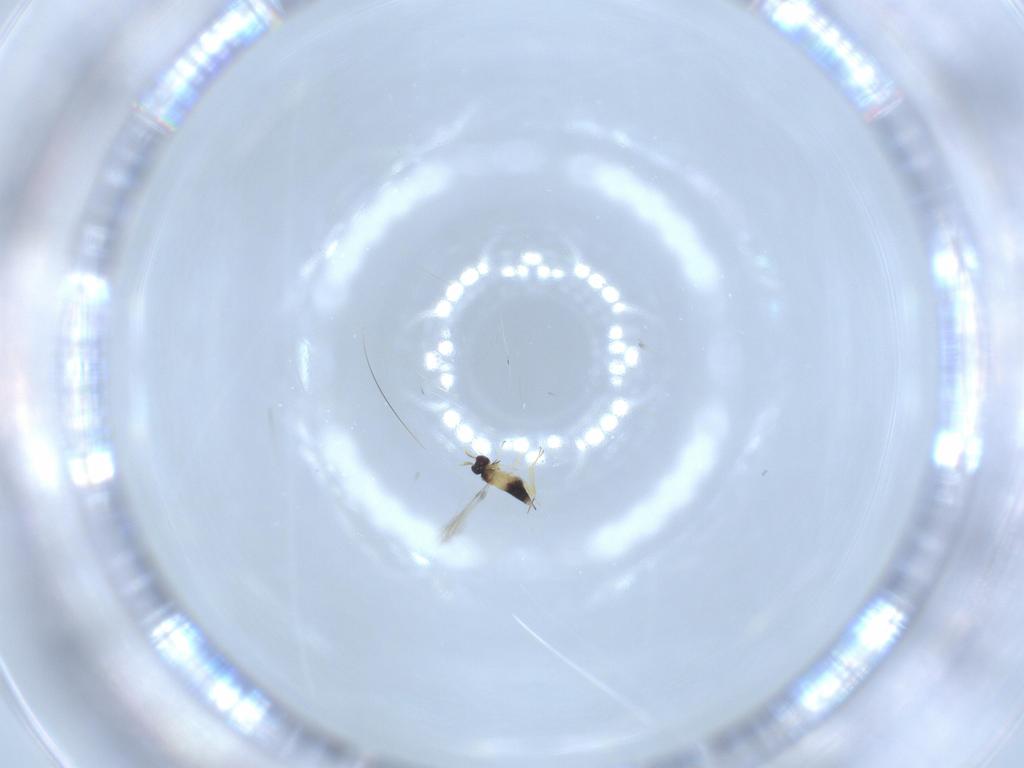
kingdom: Animalia
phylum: Arthropoda
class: Insecta
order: Hymenoptera
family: Mymaridae
